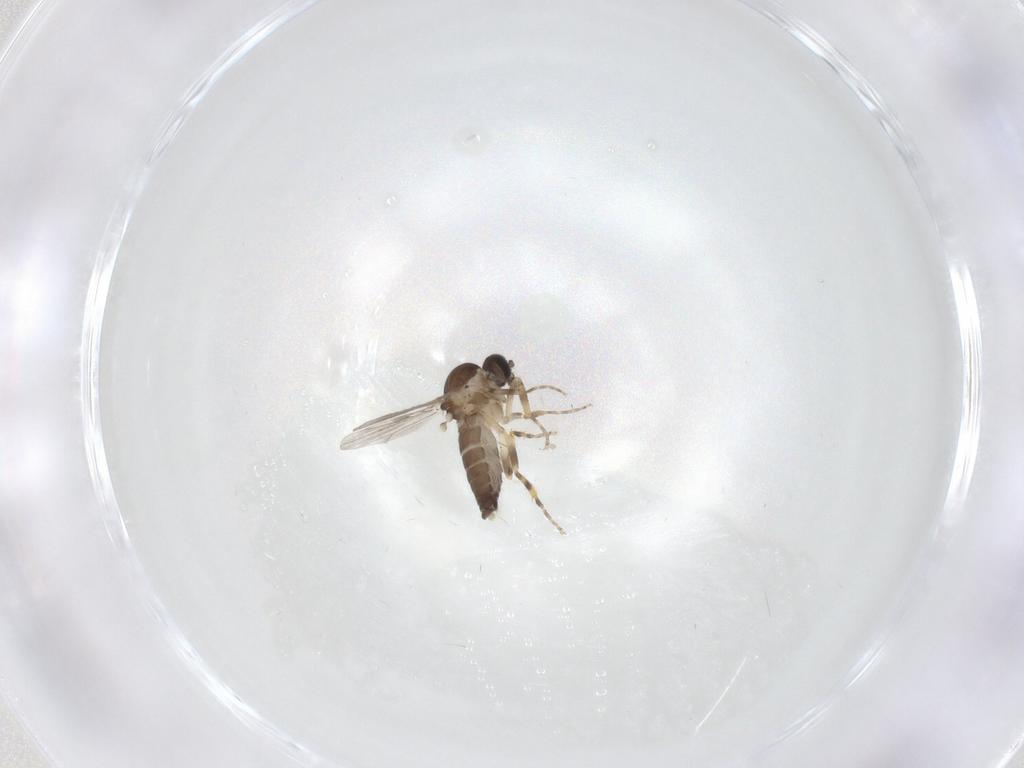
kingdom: Animalia
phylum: Arthropoda
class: Insecta
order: Diptera
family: Ceratopogonidae
